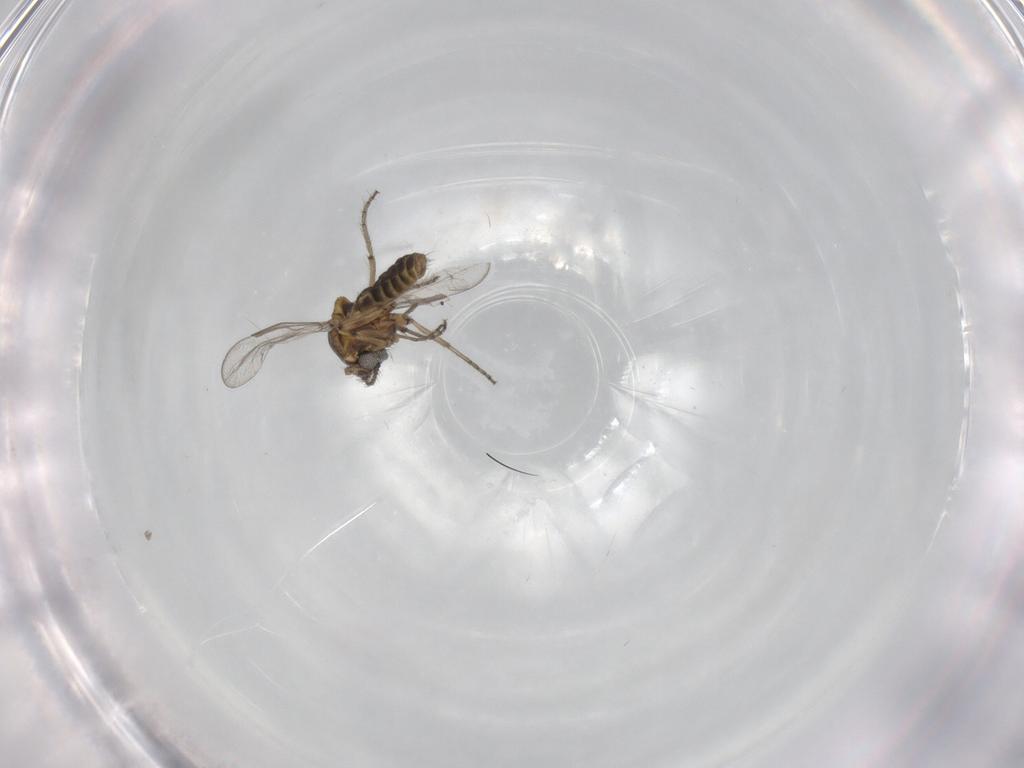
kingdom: Animalia
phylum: Arthropoda
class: Insecta
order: Diptera
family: Ceratopogonidae
